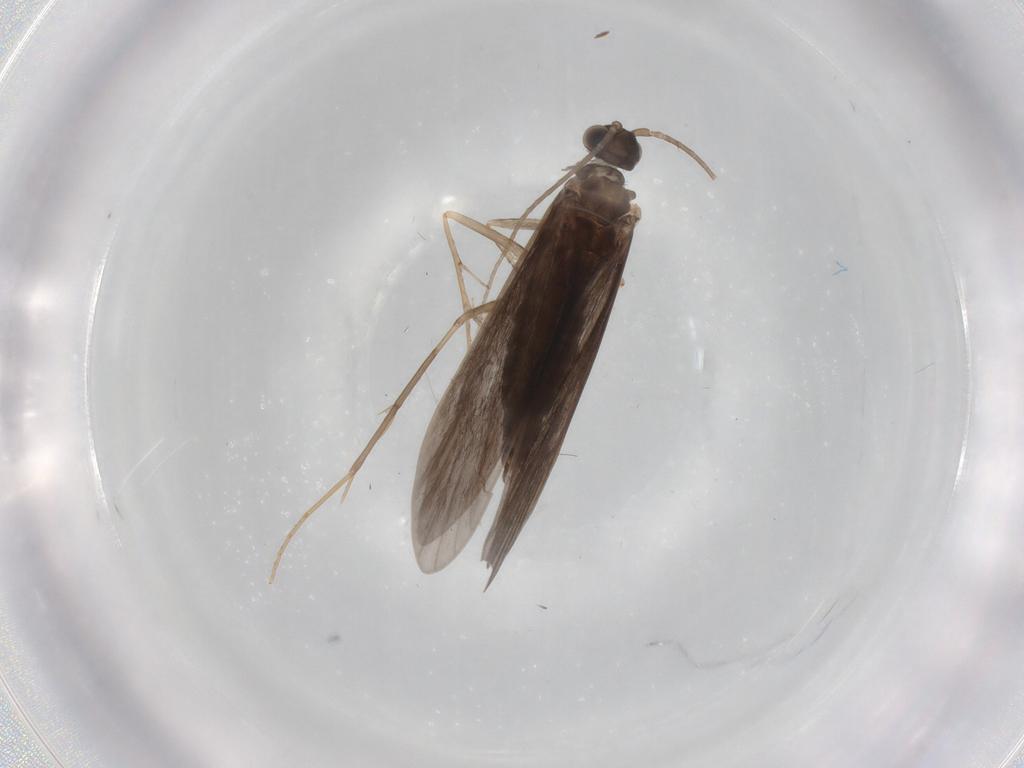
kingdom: Animalia
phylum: Arthropoda
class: Insecta
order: Trichoptera
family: Xiphocentronidae
